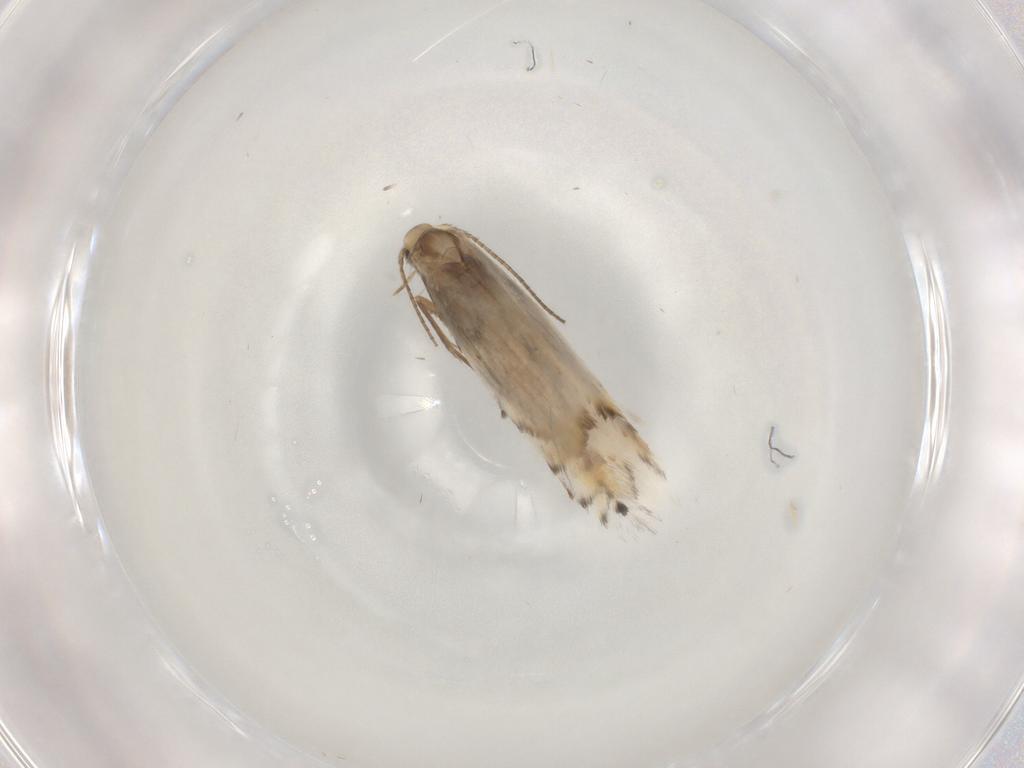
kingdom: Animalia
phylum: Arthropoda
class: Insecta
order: Lepidoptera
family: Gracillariidae
